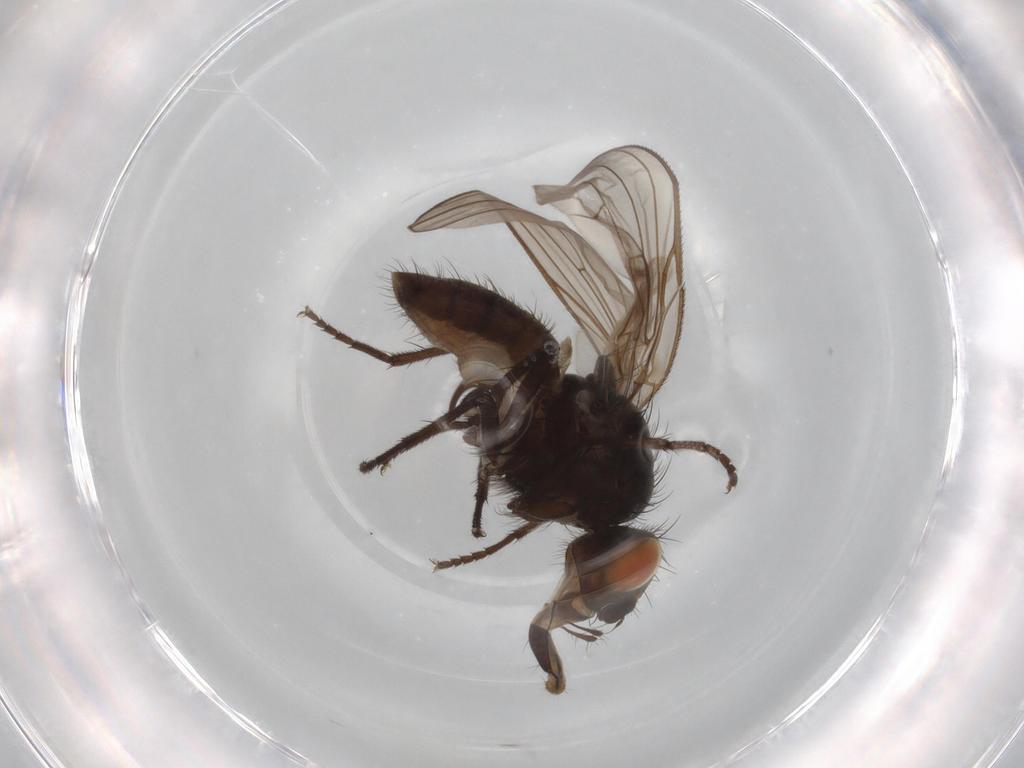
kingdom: Animalia
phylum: Arthropoda
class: Insecta
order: Diptera
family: Anthomyiidae
